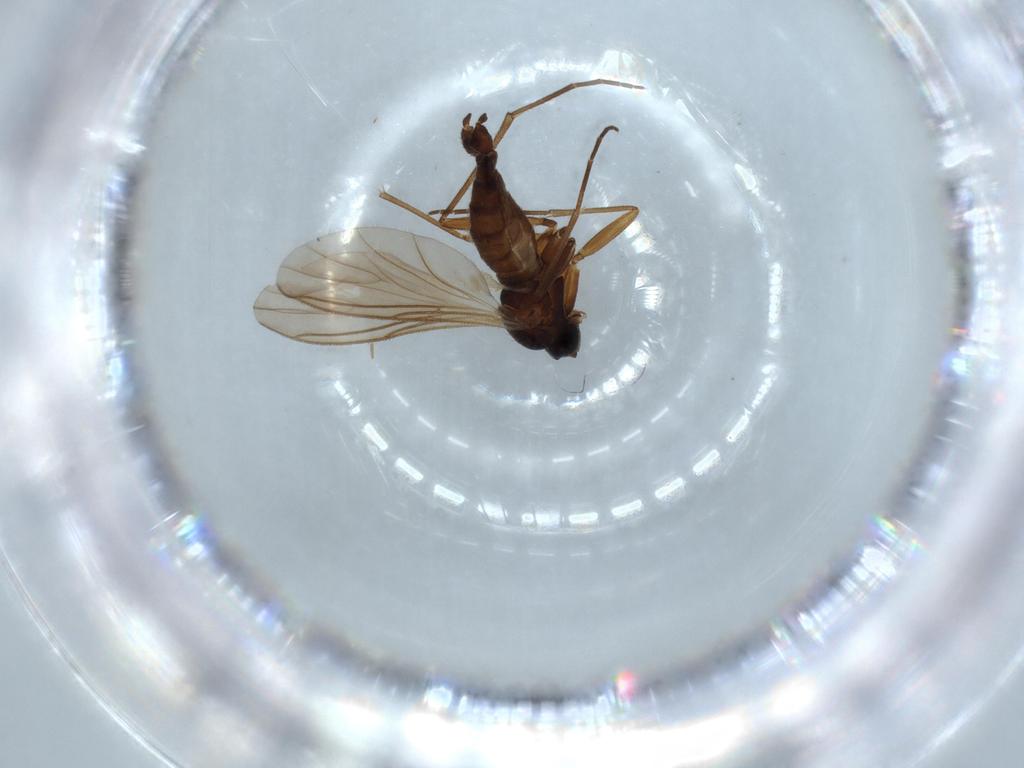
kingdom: Animalia
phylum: Arthropoda
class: Insecta
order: Diptera
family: Sciaridae
